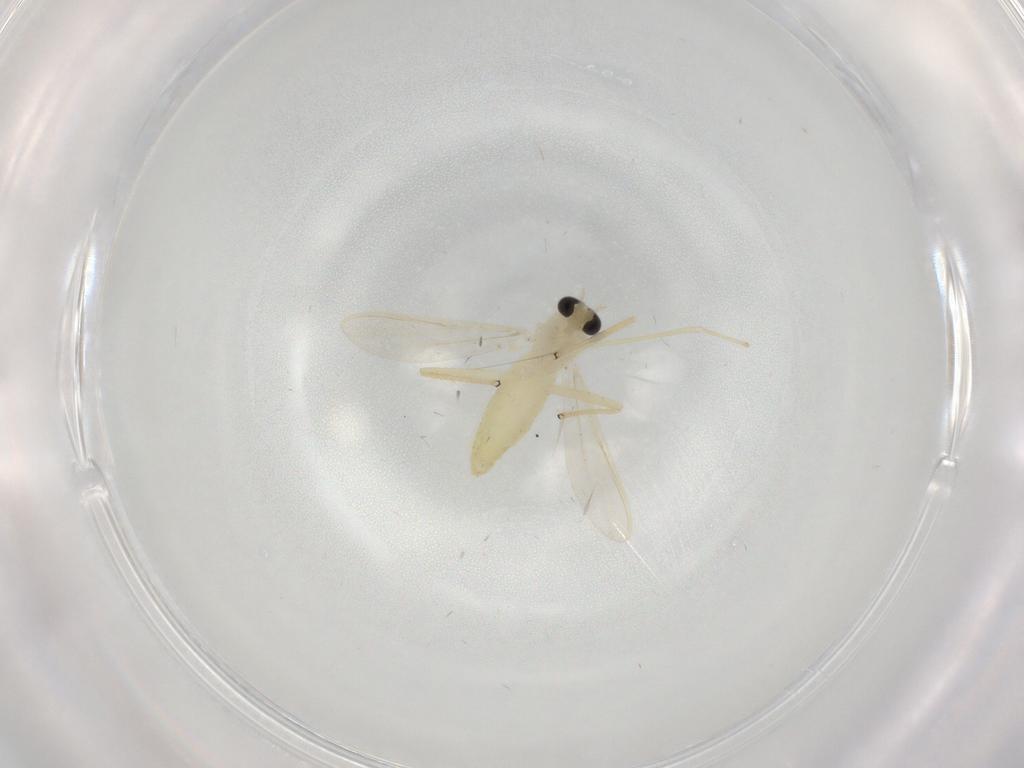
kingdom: Animalia
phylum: Arthropoda
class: Insecta
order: Diptera
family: Chironomidae
